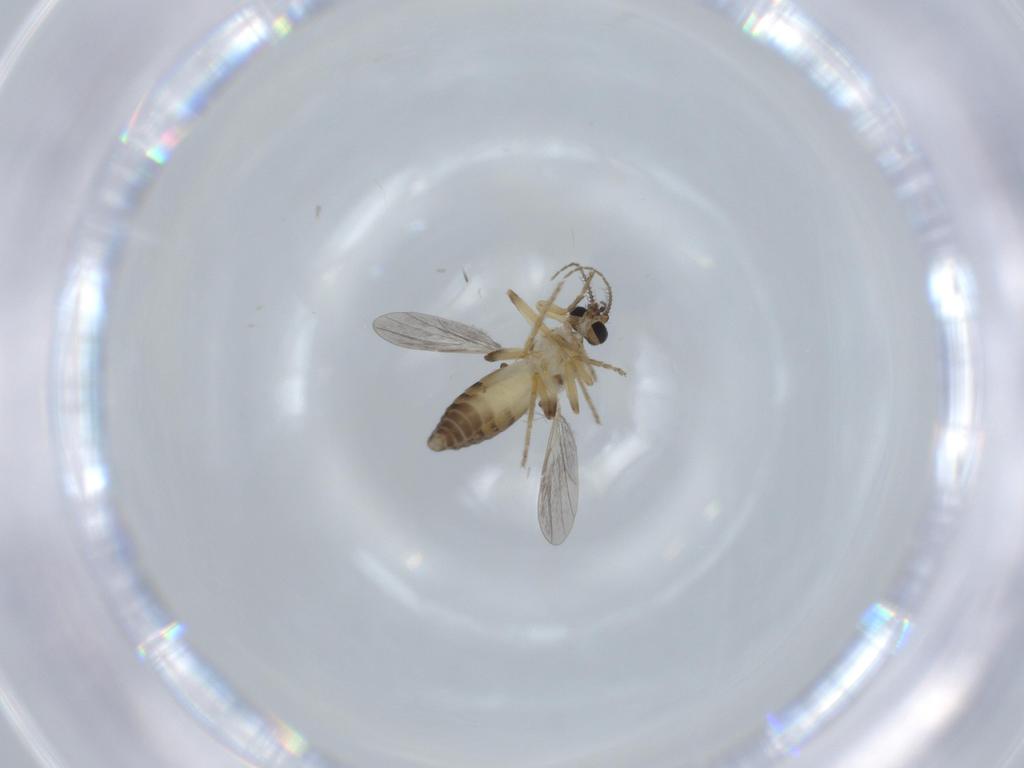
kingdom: Animalia
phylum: Arthropoda
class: Insecta
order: Diptera
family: Ceratopogonidae
